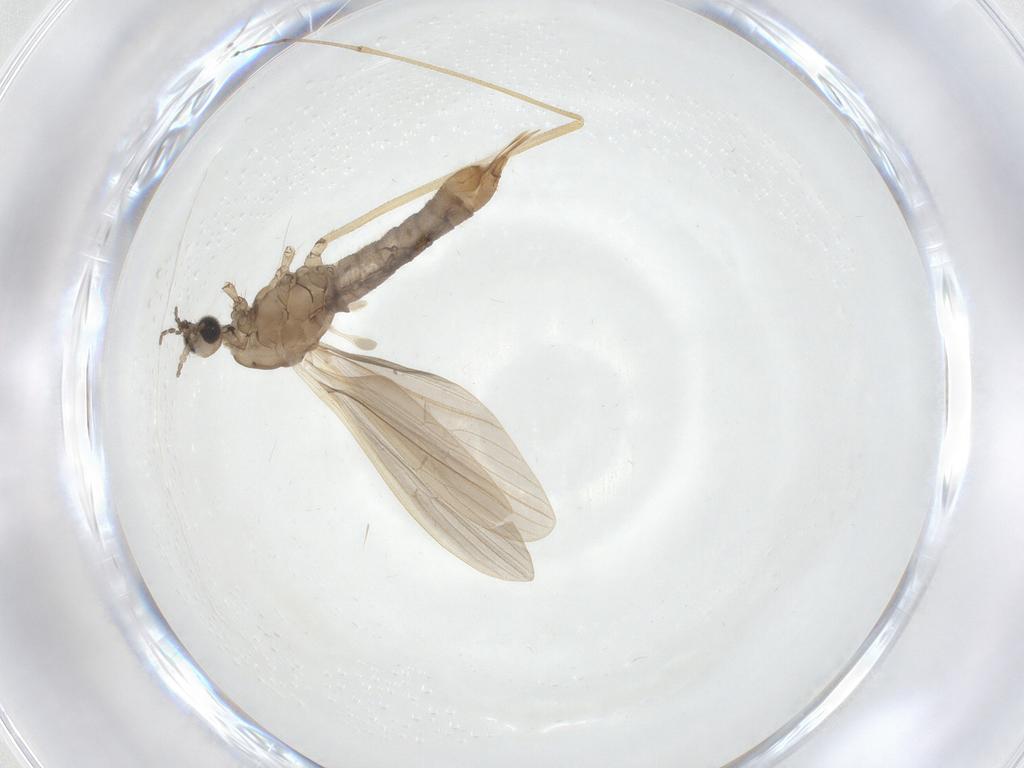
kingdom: Animalia
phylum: Arthropoda
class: Insecta
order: Diptera
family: Limoniidae
